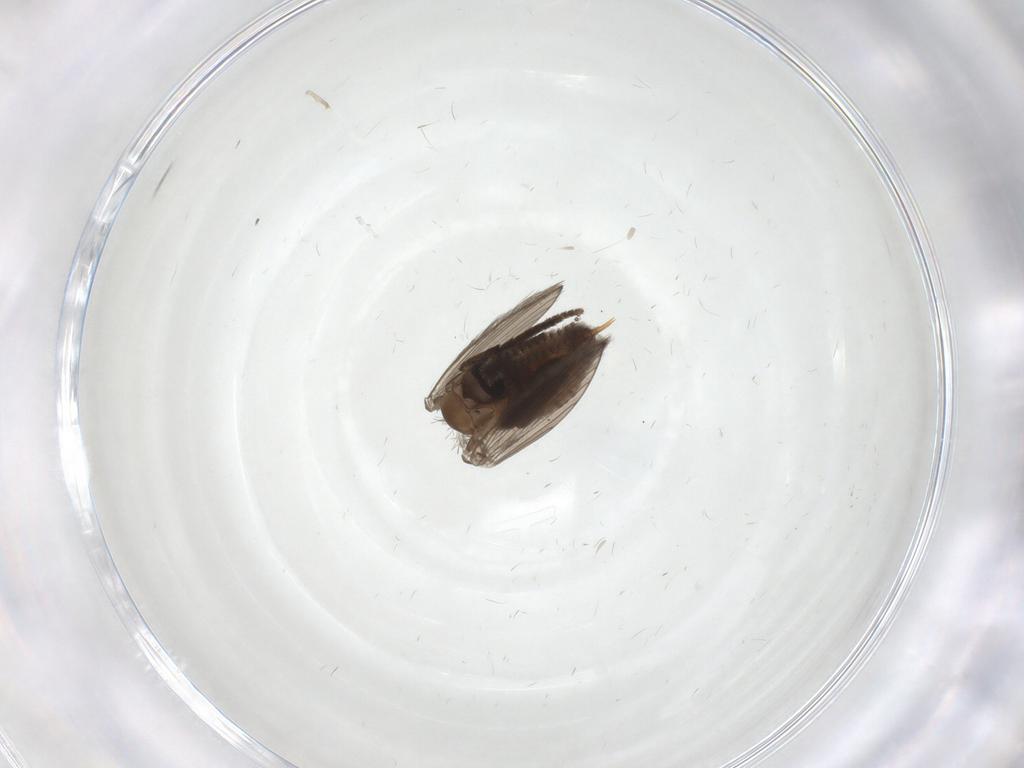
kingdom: Animalia
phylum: Arthropoda
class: Insecta
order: Diptera
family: Psychodidae
